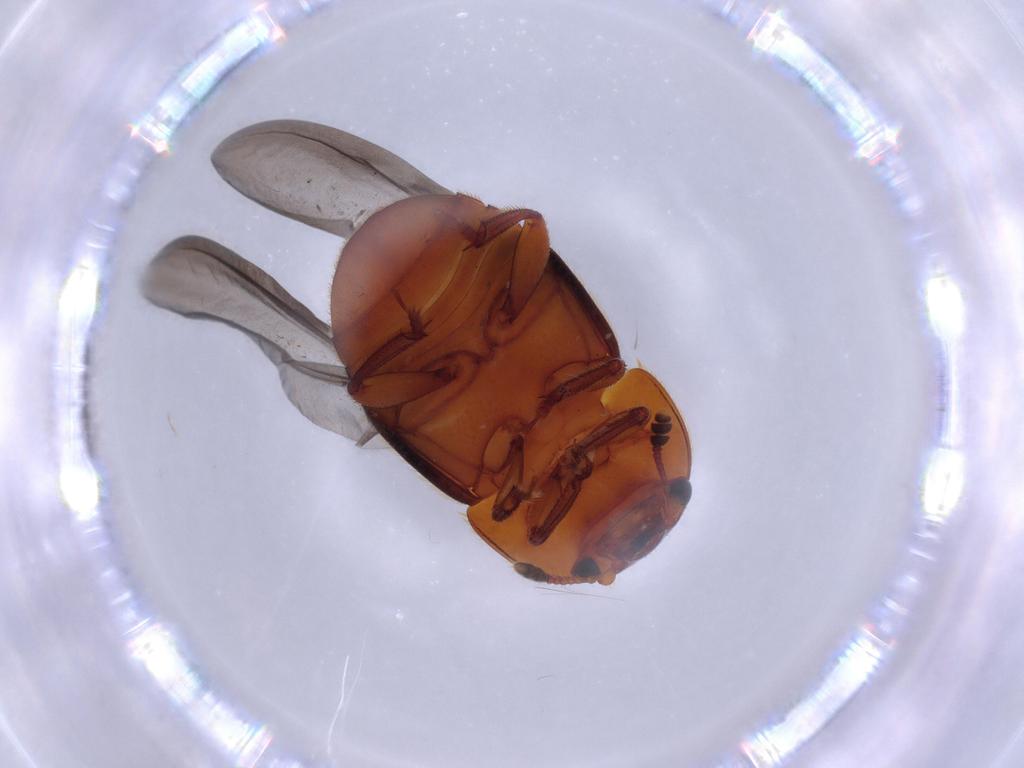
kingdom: Animalia
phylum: Arthropoda
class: Insecta
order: Coleoptera
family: Nitidulidae
